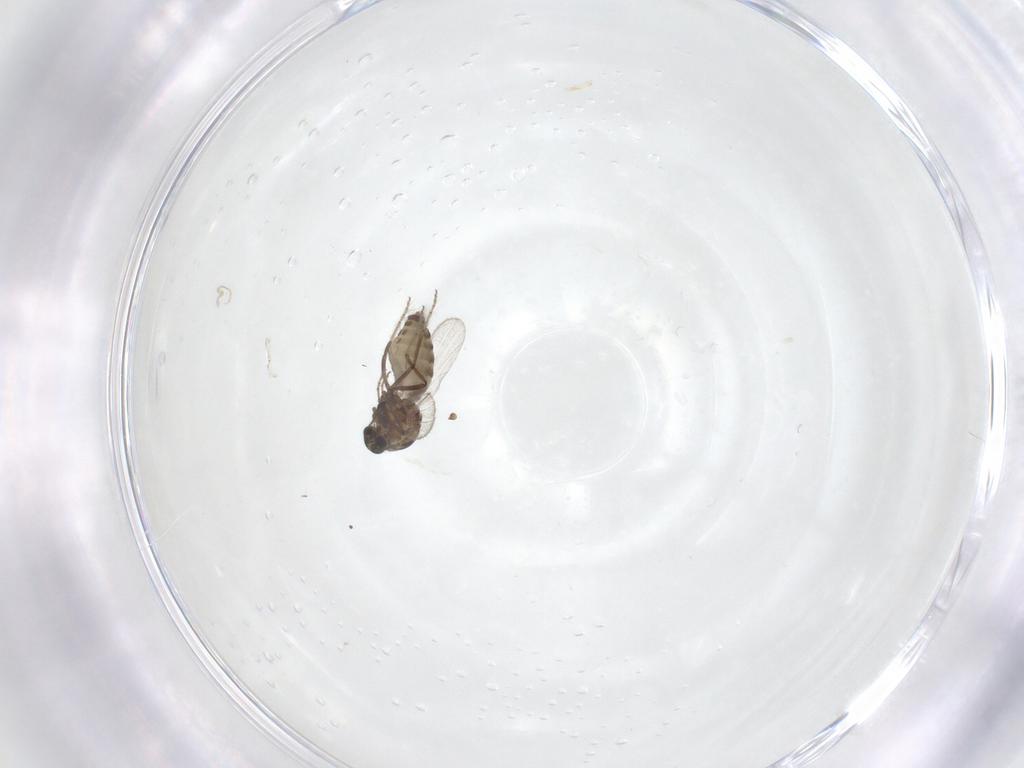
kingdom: Animalia
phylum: Arthropoda
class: Insecta
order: Diptera
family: Ceratopogonidae
